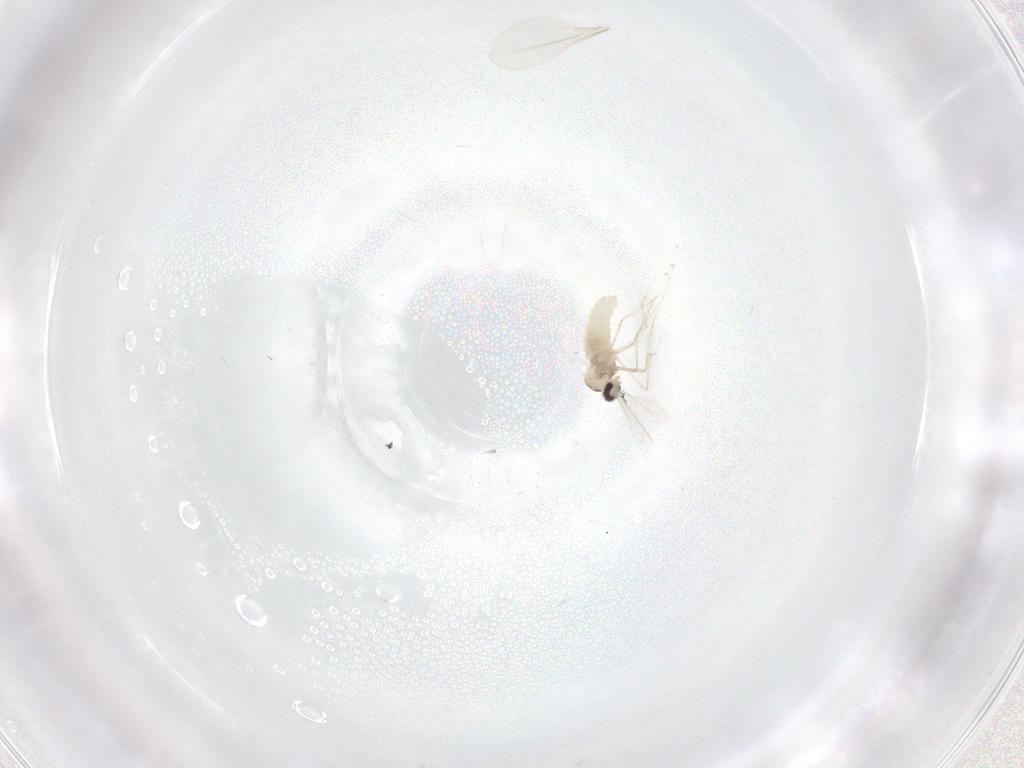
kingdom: Animalia
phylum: Arthropoda
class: Insecta
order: Diptera
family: Cecidomyiidae
